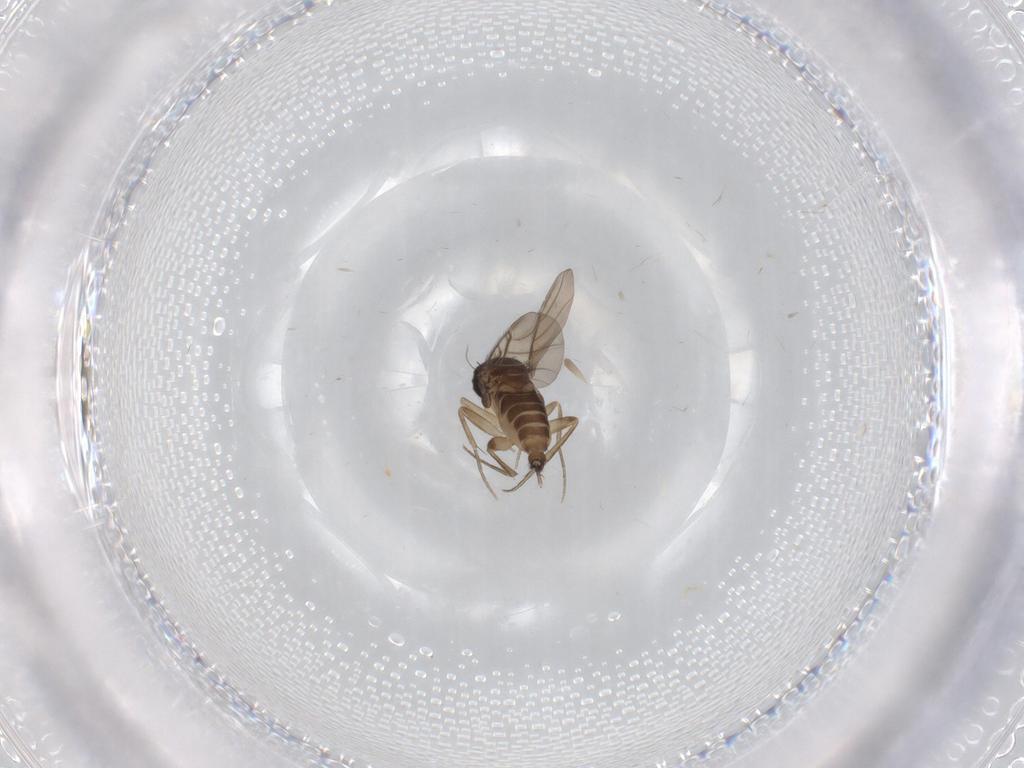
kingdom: Animalia
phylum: Arthropoda
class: Insecta
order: Diptera
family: Phoridae
